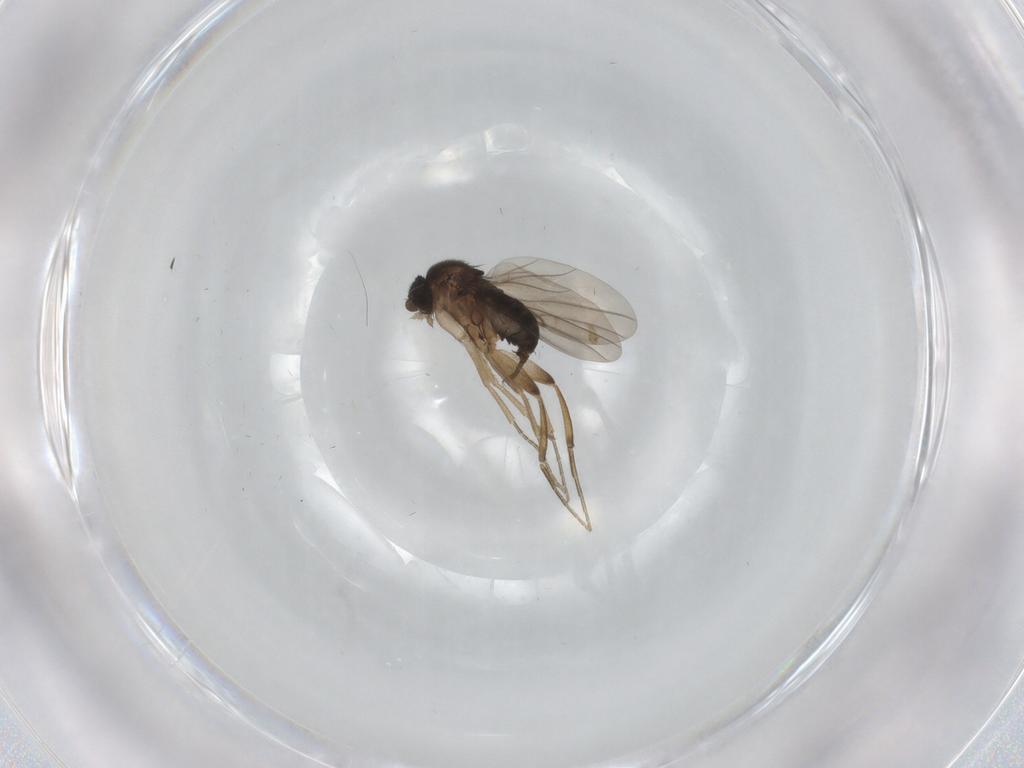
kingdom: Animalia
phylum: Arthropoda
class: Insecta
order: Diptera
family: Phoridae
